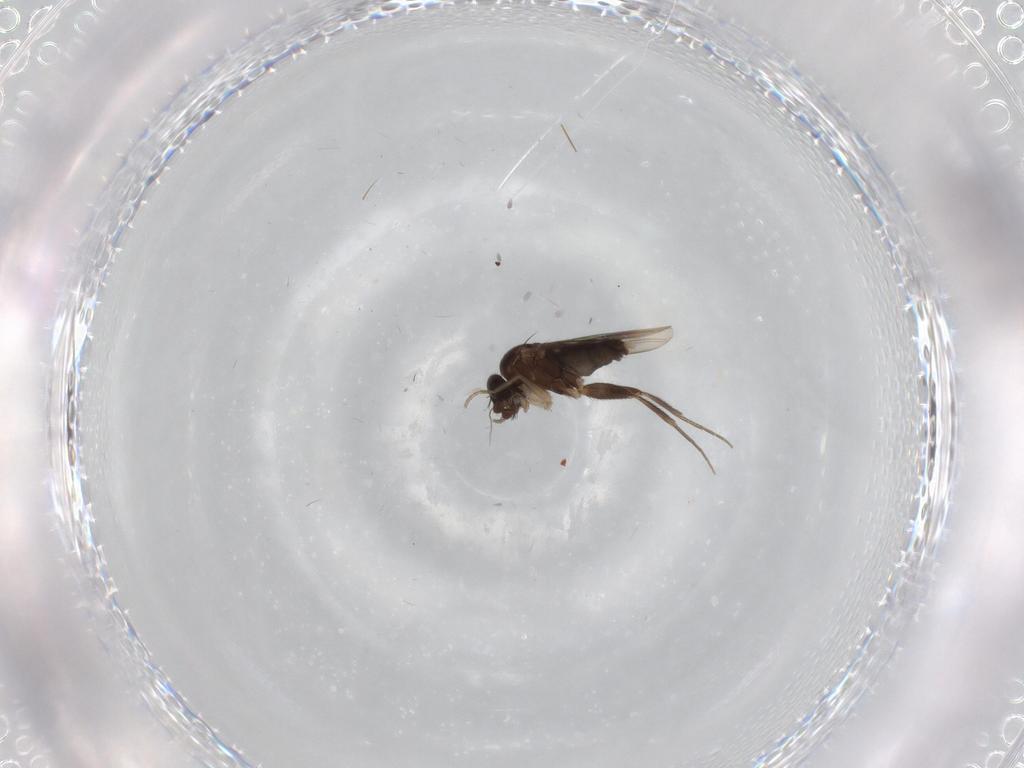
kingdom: Animalia
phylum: Arthropoda
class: Insecta
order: Diptera
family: Phoridae
